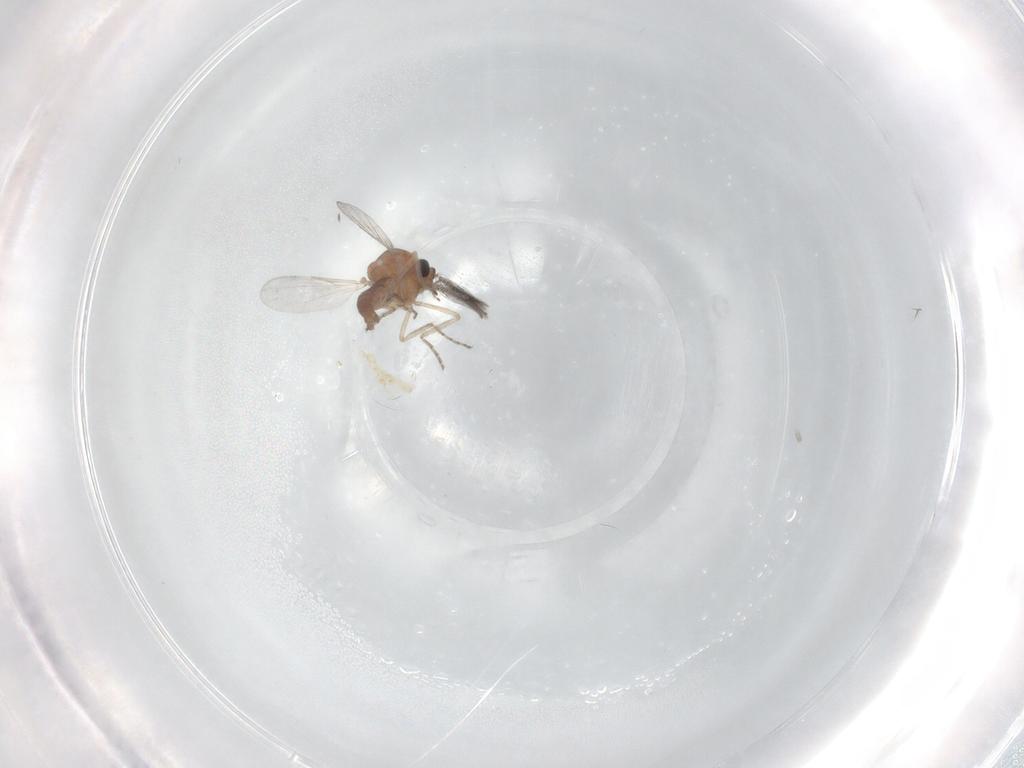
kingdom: Animalia
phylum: Arthropoda
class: Insecta
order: Diptera
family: Ceratopogonidae
